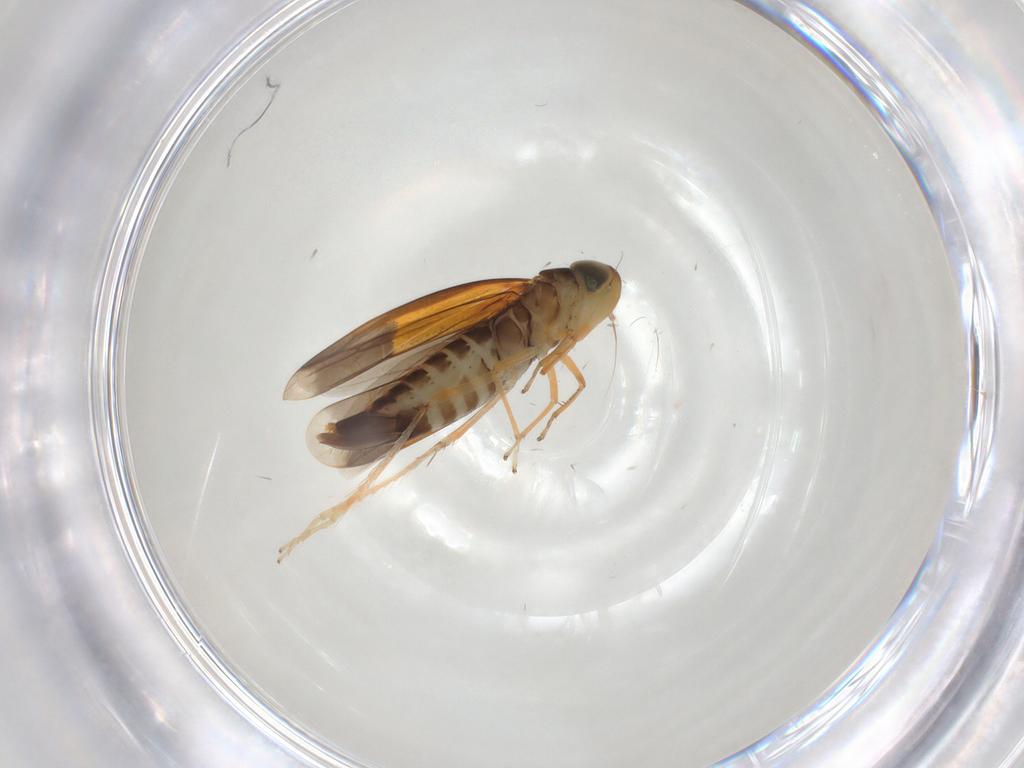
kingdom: Animalia
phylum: Arthropoda
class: Insecta
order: Hemiptera
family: Cicadellidae
